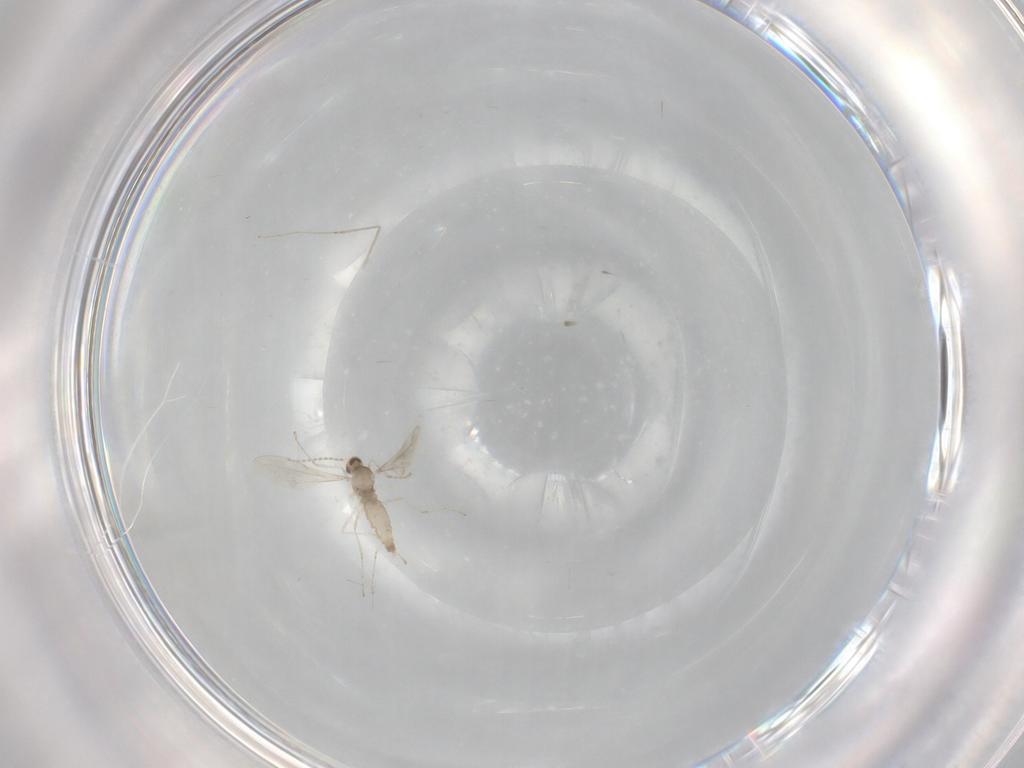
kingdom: Animalia
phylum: Arthropoda
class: Insecta
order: Diptera
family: Cecidomyiidae
